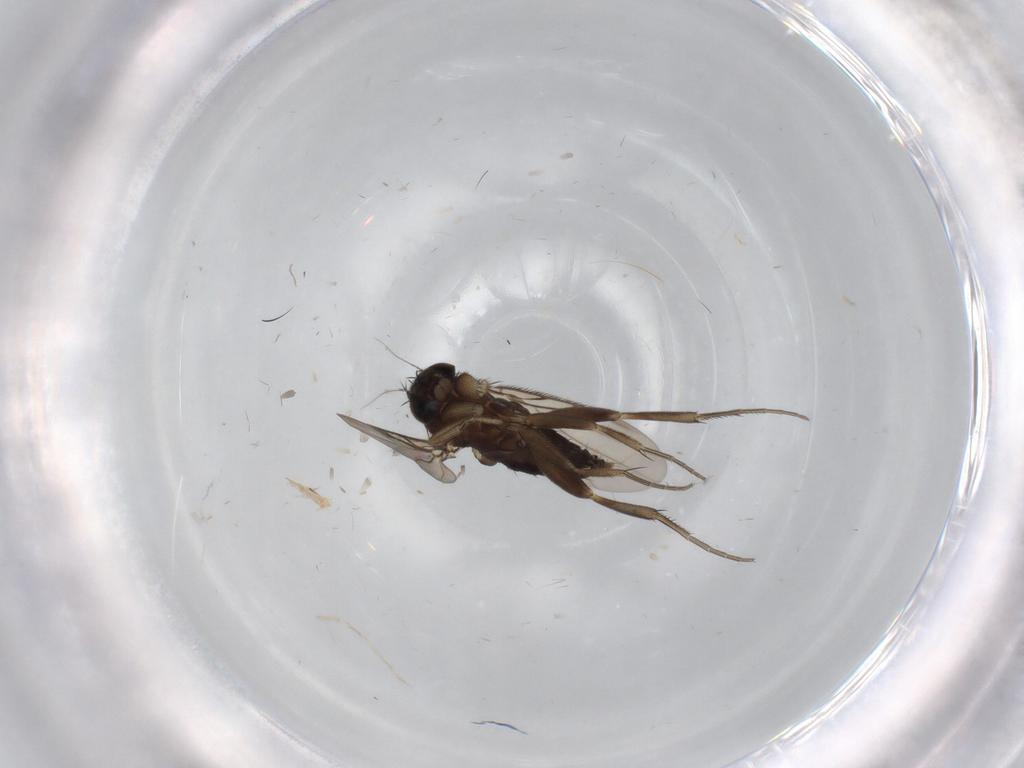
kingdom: Animalia
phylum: Arthropoda
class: Insecta
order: Diptera
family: Phoridae
